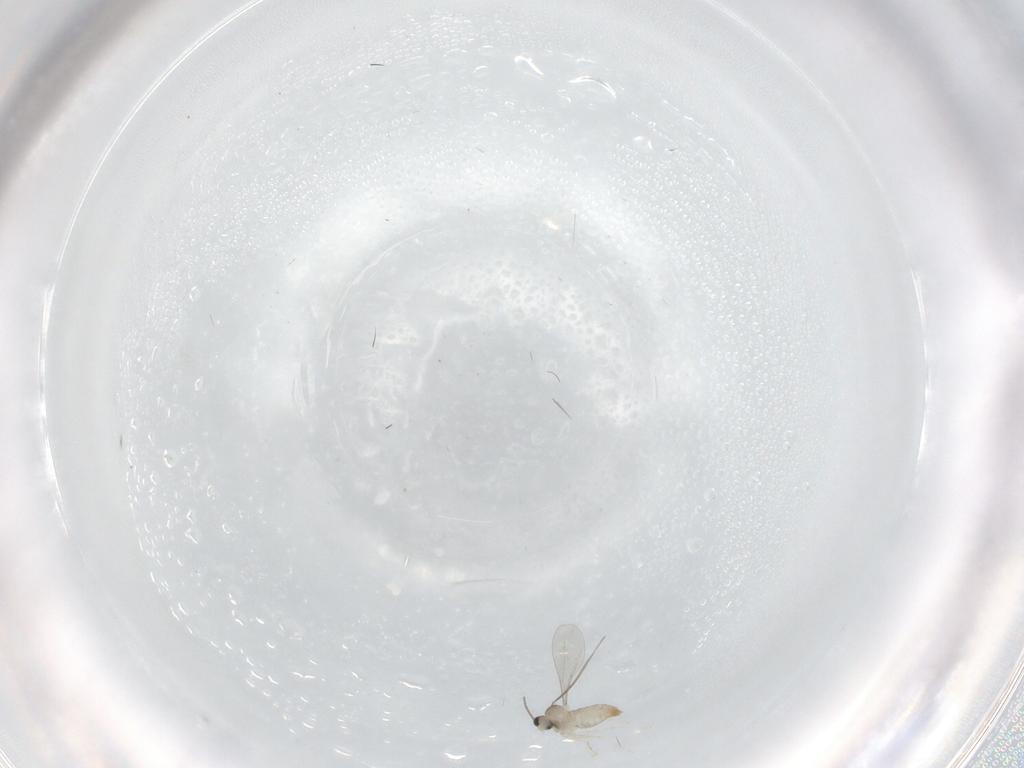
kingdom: Animalia
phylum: Arthropoda
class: Insecta
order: Diptera
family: Cecidomyiidae
